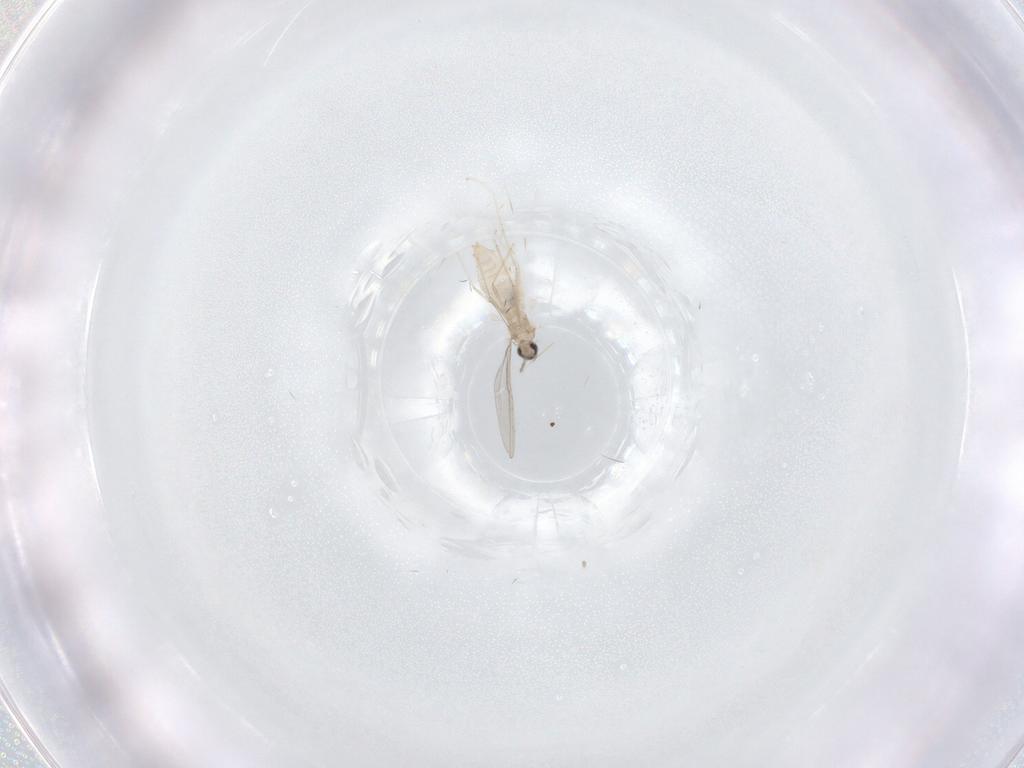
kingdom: Animalia
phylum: Arthropoda
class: Insecta
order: Diptera
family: Cecidomyiidae
